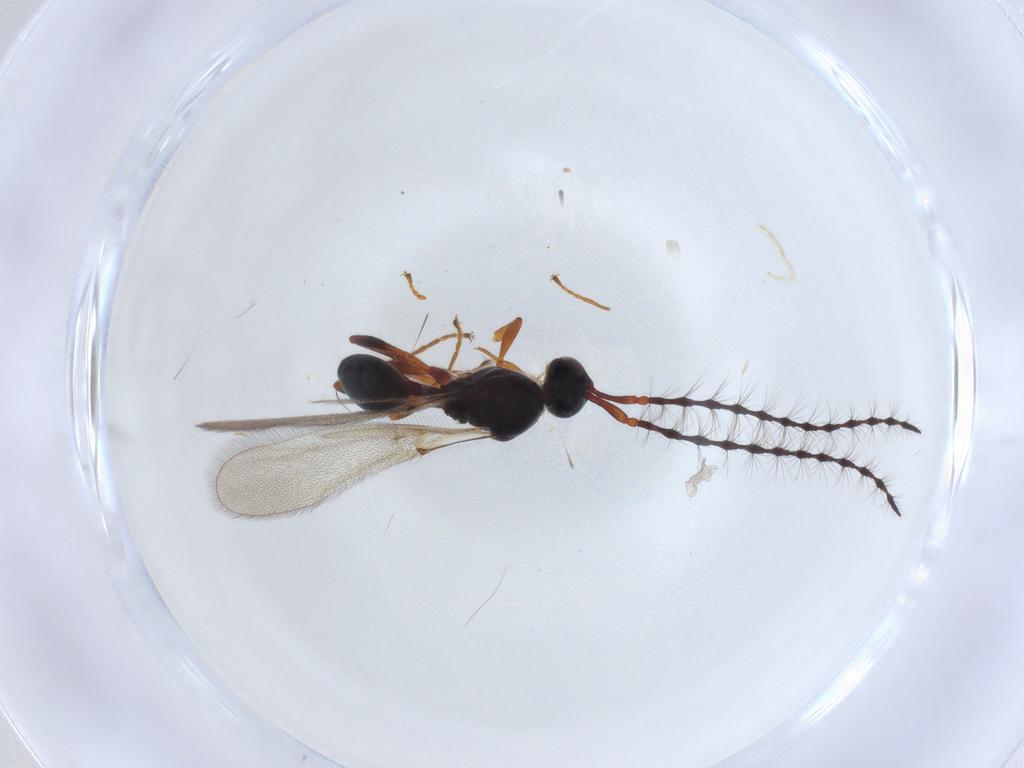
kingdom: Animalia
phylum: Arthropoda
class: Insecta
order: Hymenoptera
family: Diapriidae
